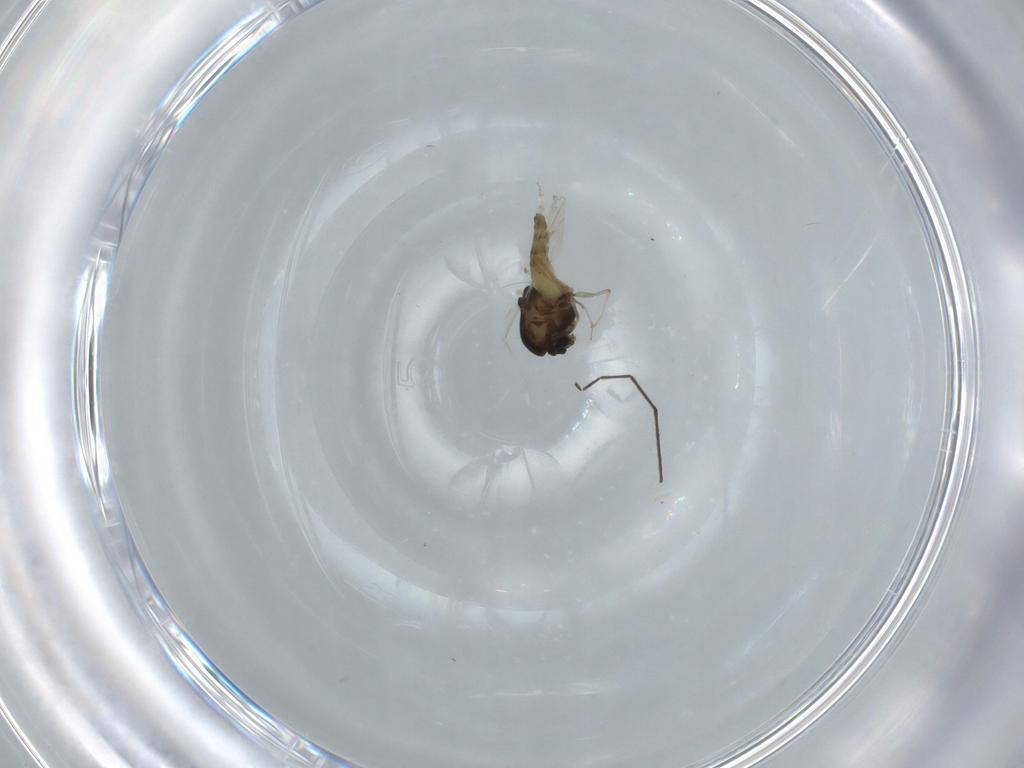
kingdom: Animalia
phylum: Arthropoda
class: Insecta
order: Diptera
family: Chironomidae
